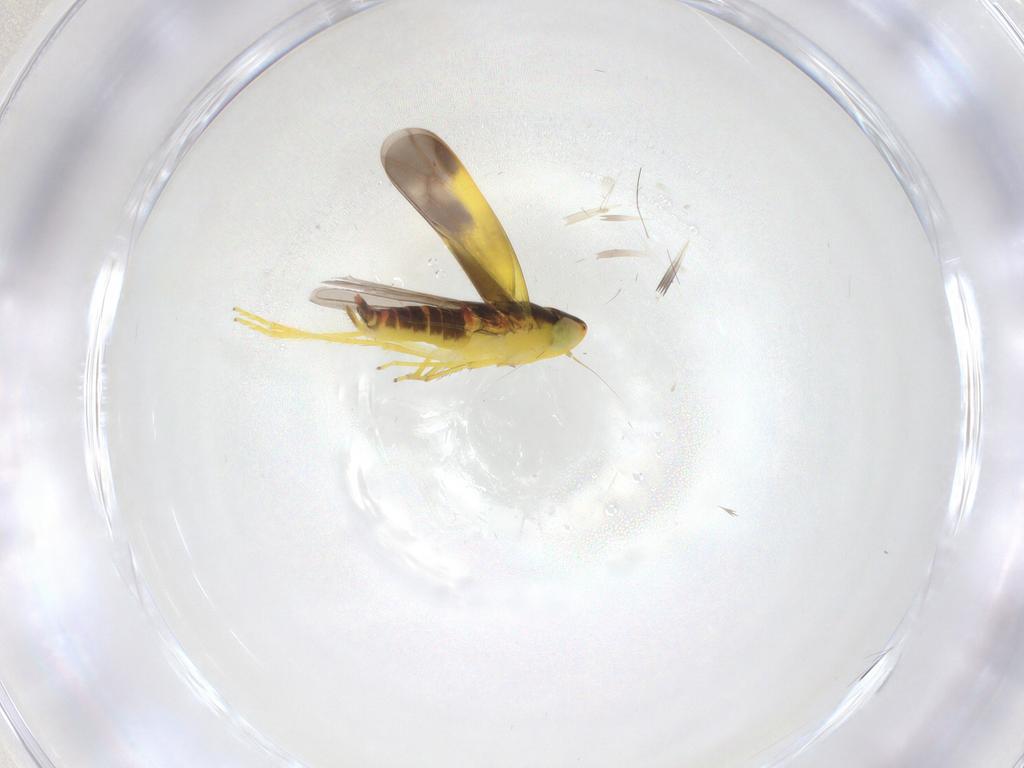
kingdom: Animalia
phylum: Arthropoda
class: Insecta
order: Hemiptera
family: Cicadellidae
